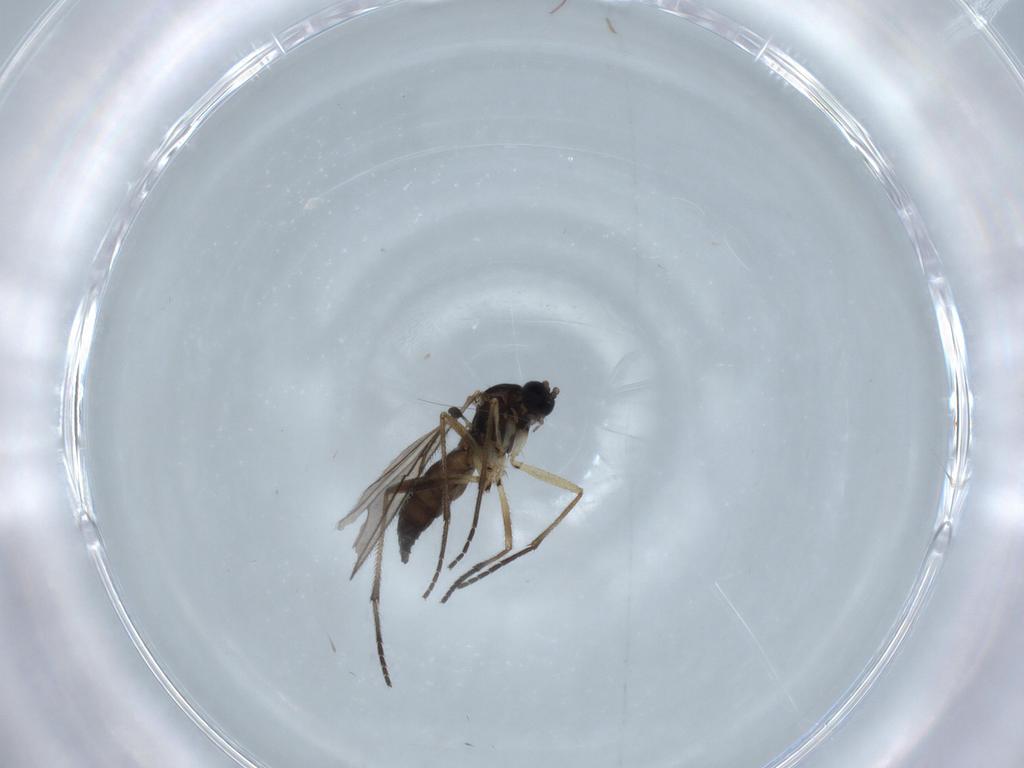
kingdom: Animalia
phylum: Arthropoda
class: Insecta
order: Diptera
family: Sciaridae
